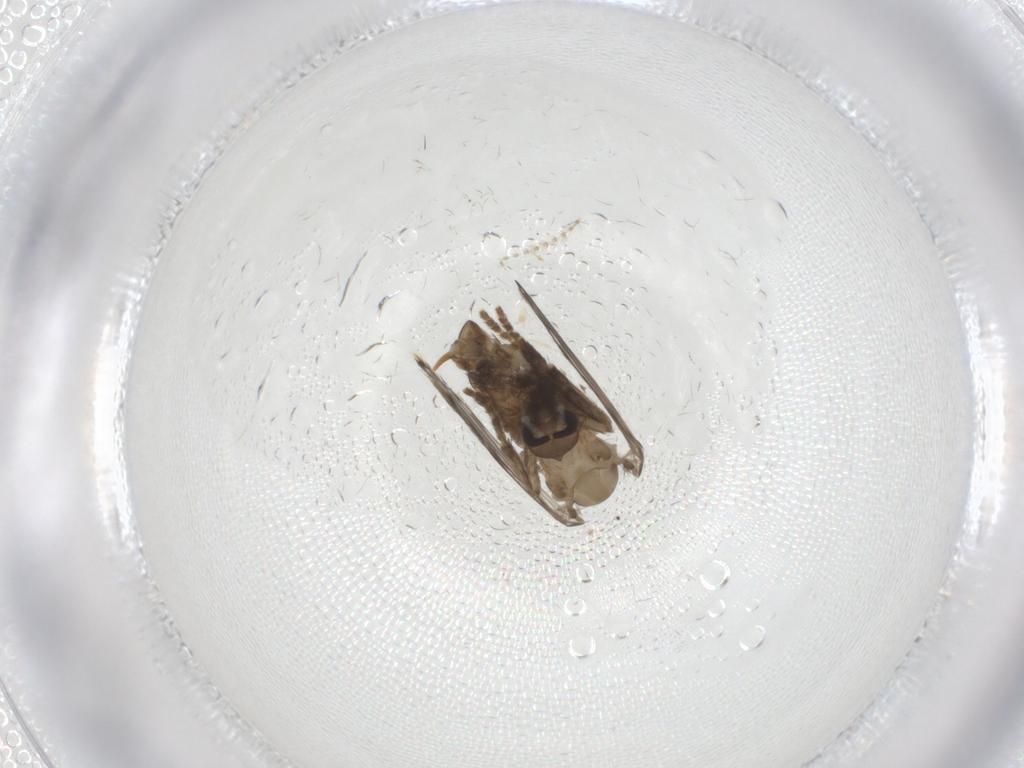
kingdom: Animalia
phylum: Arthropoda
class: Insecta
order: Diptera
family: Psychodidae
